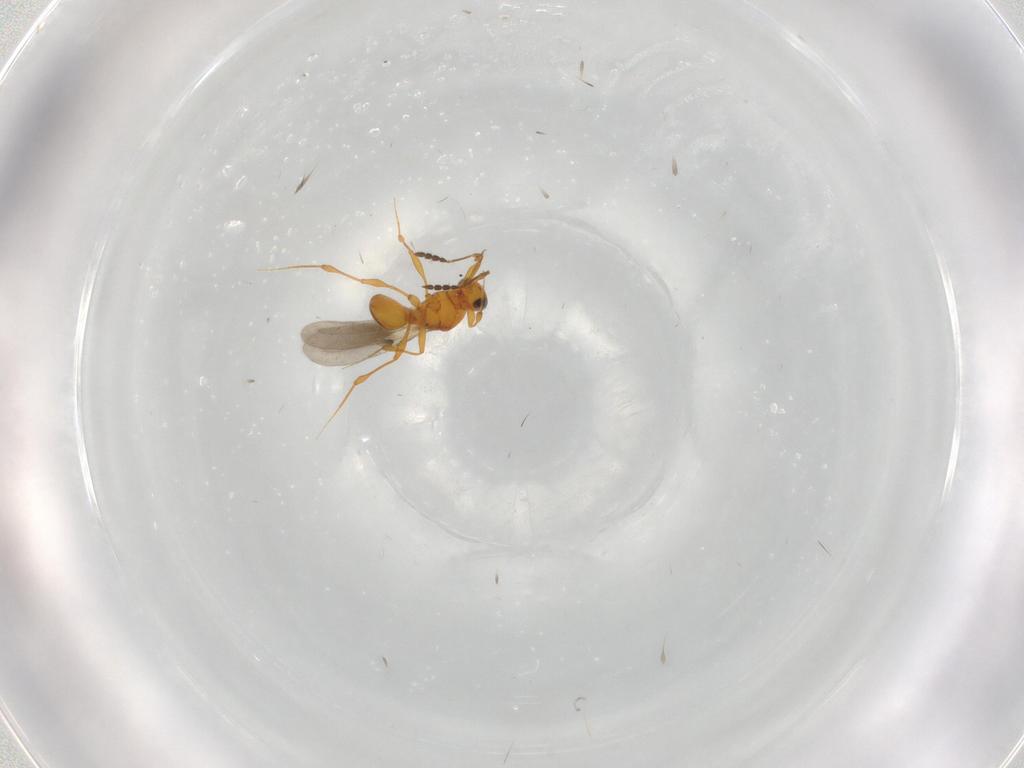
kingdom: Animalia
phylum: Arthropoda
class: Insecta
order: Hymenoptera
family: Platygastridae
